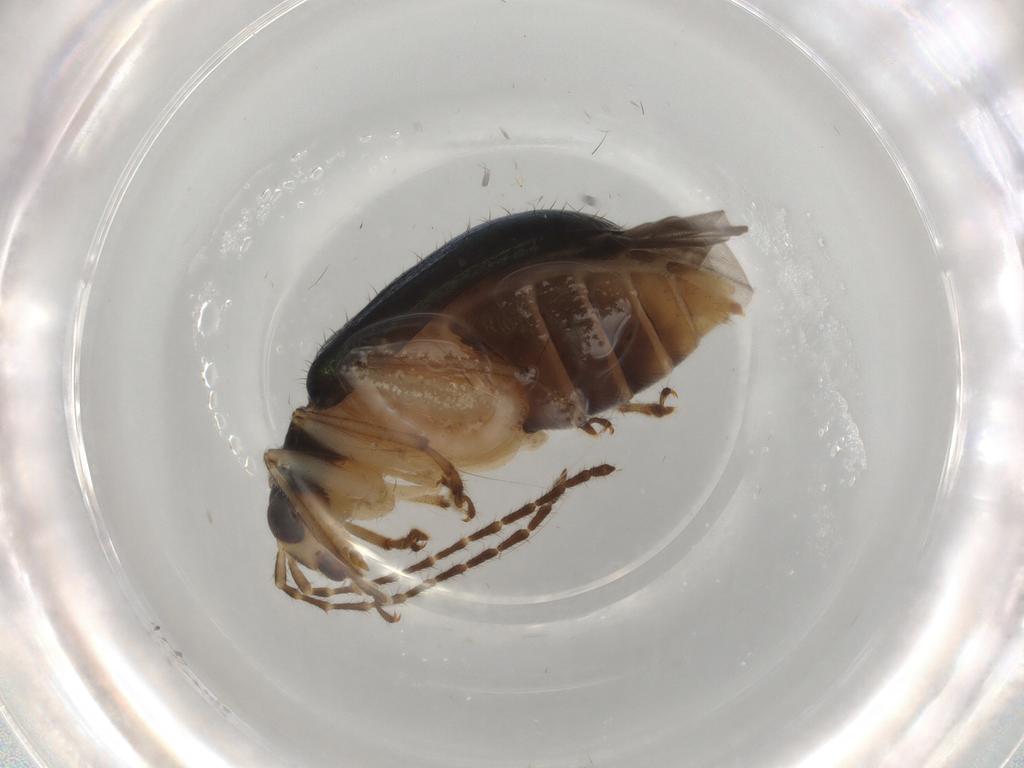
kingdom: Animalia
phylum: Arthropoda
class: Insecta
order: Coleoptera
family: Chrysomelidae
